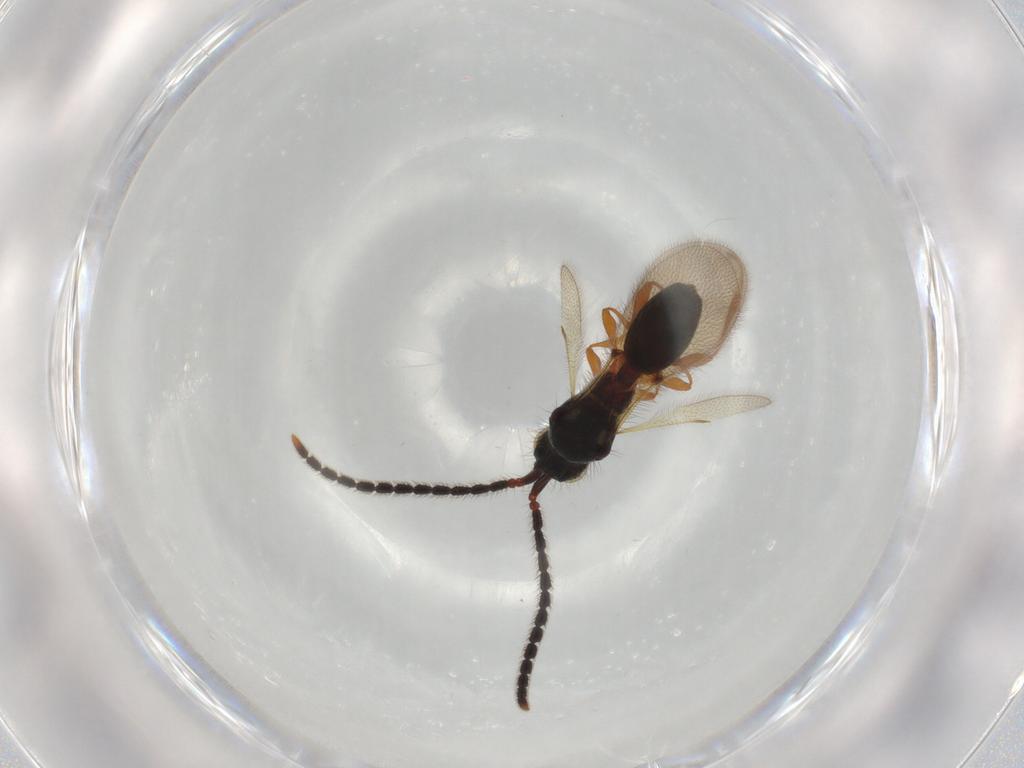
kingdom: Animalia
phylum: Arthropoda
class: Insecta
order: Hymenoptera
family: Diapriidae
